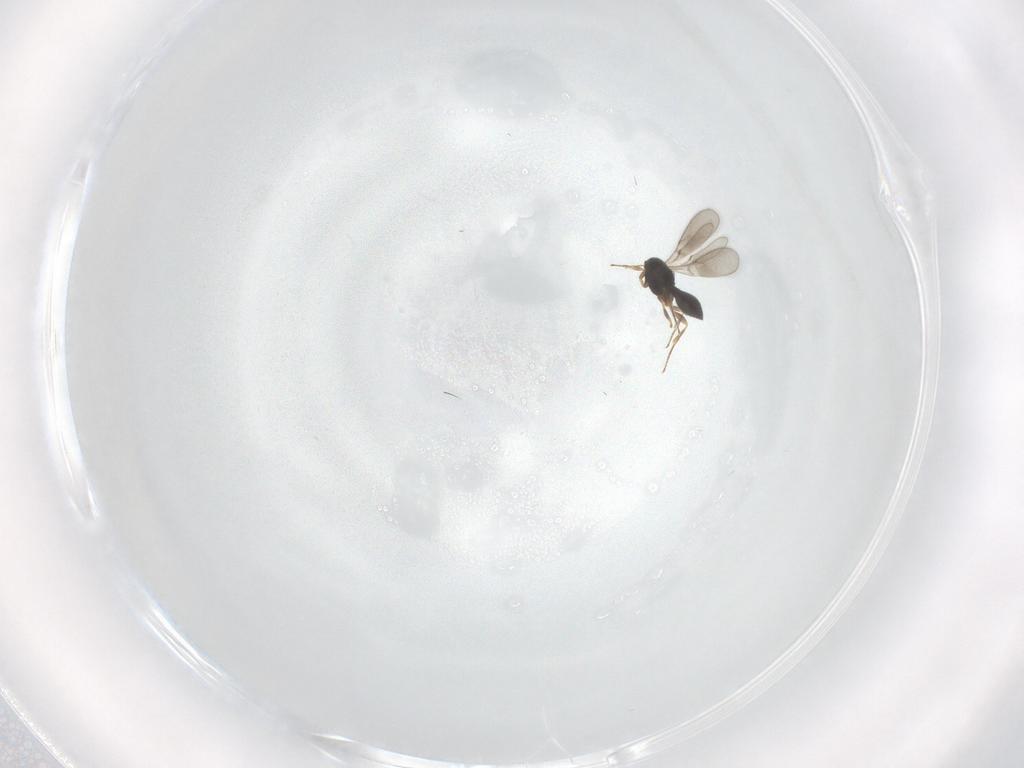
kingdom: Animalia
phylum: Arthropoda
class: Insecta
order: Hymenoptera
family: Scelionidae
